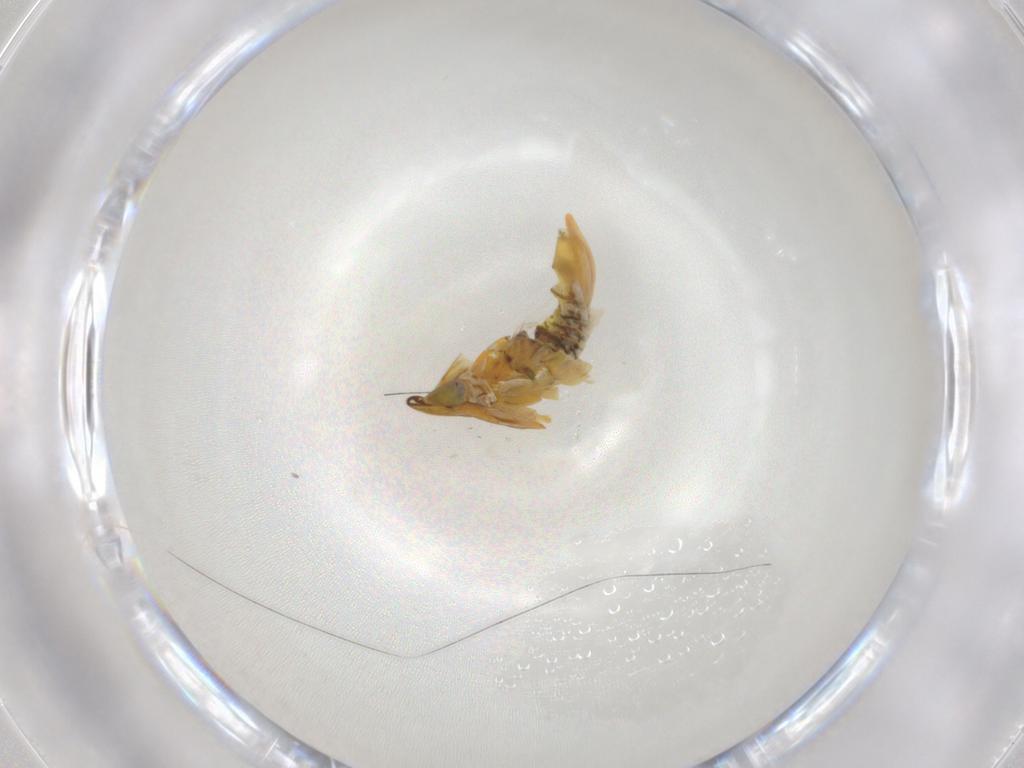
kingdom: Animalia
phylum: Arthropoda
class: Insecta
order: Hemiptera
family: Cicadellidae
